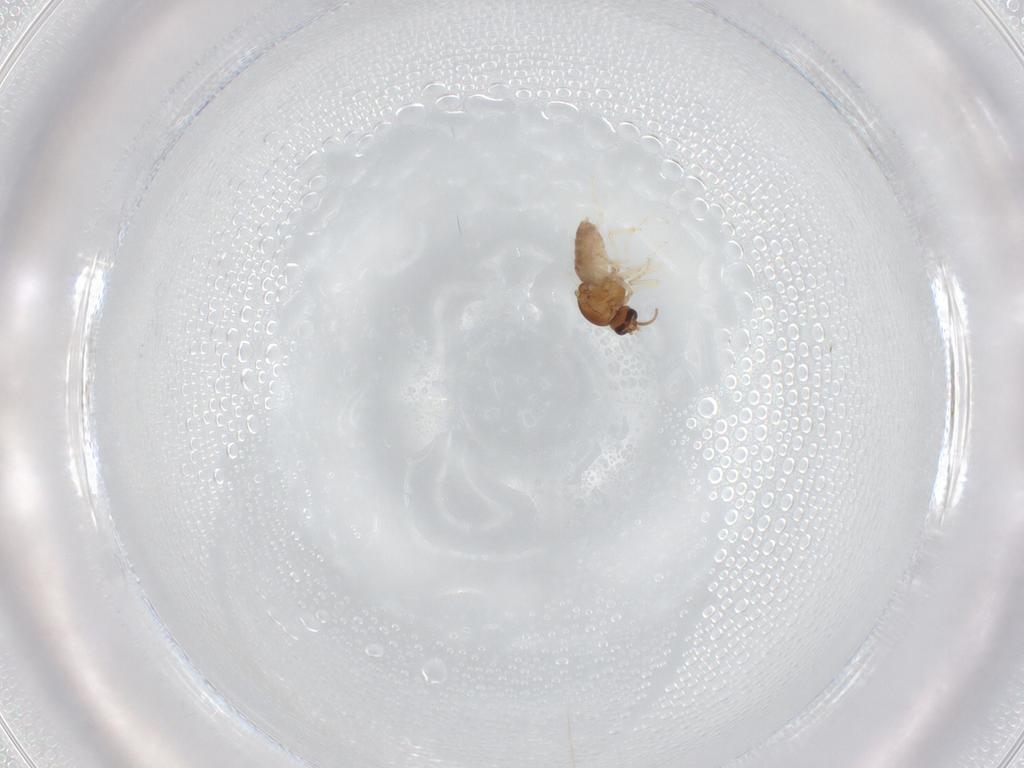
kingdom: Animalia
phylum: Arthropoda
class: Insecta
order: Diptera
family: Ceratopogonidae
